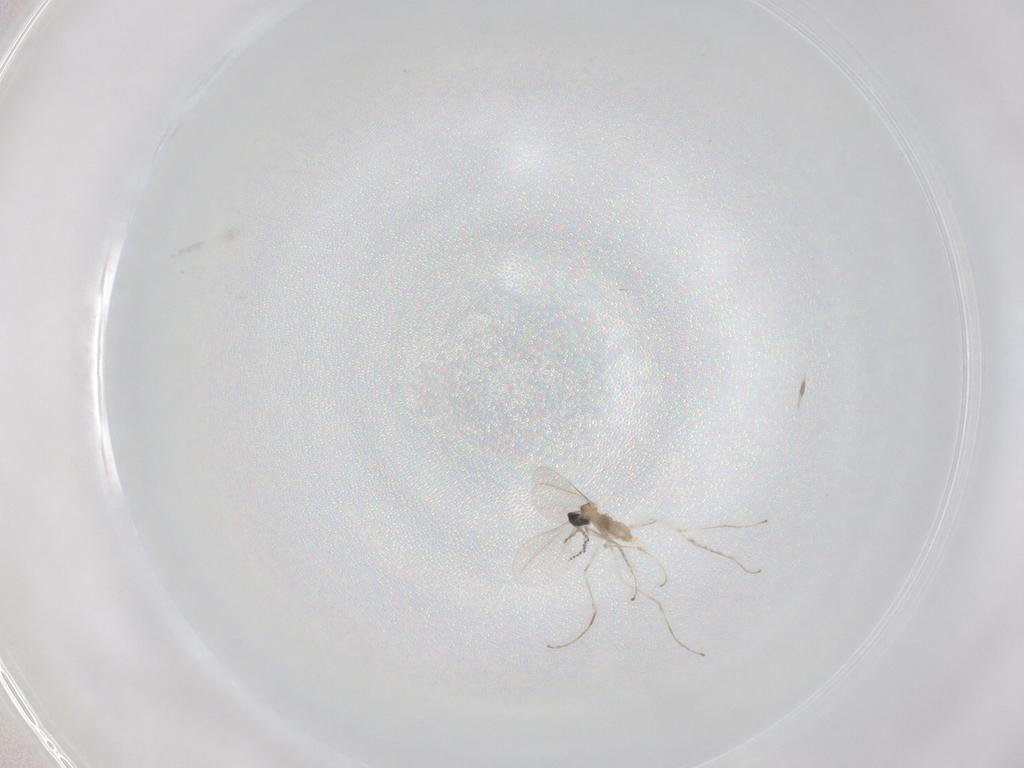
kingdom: Animalia
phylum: Arthropoda
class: Insecta
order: Diptera
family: Cecidomyiidae
